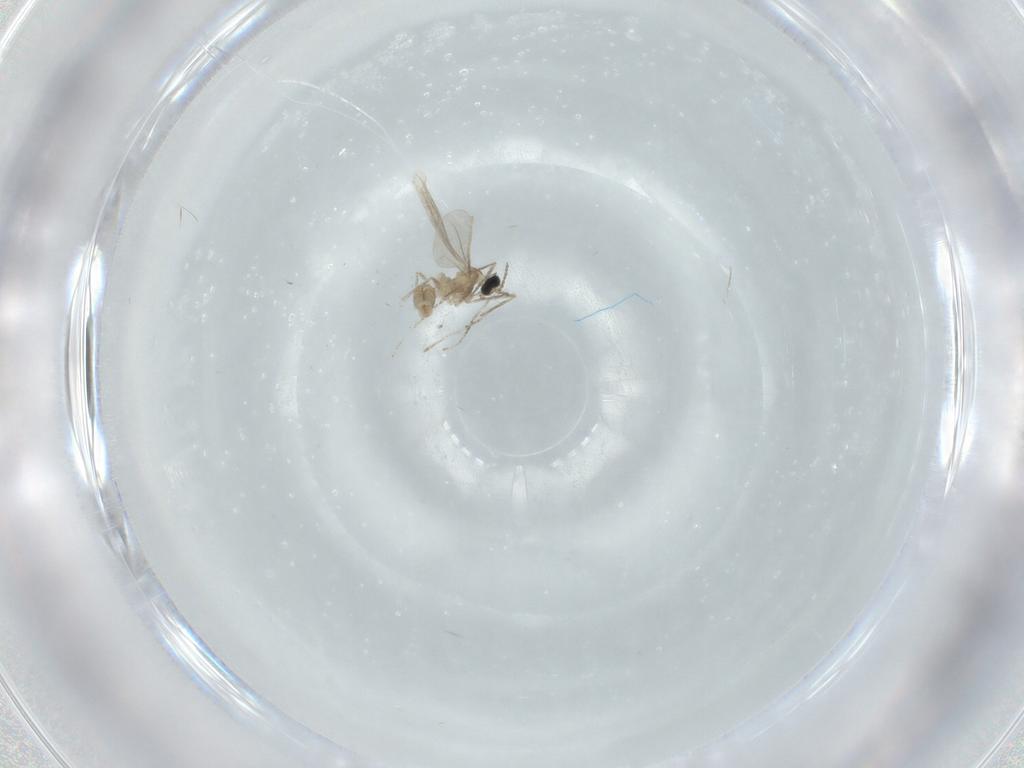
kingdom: Animalia
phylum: Arthropoda
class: Insecta
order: Diptera
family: Cecidomyiidae
